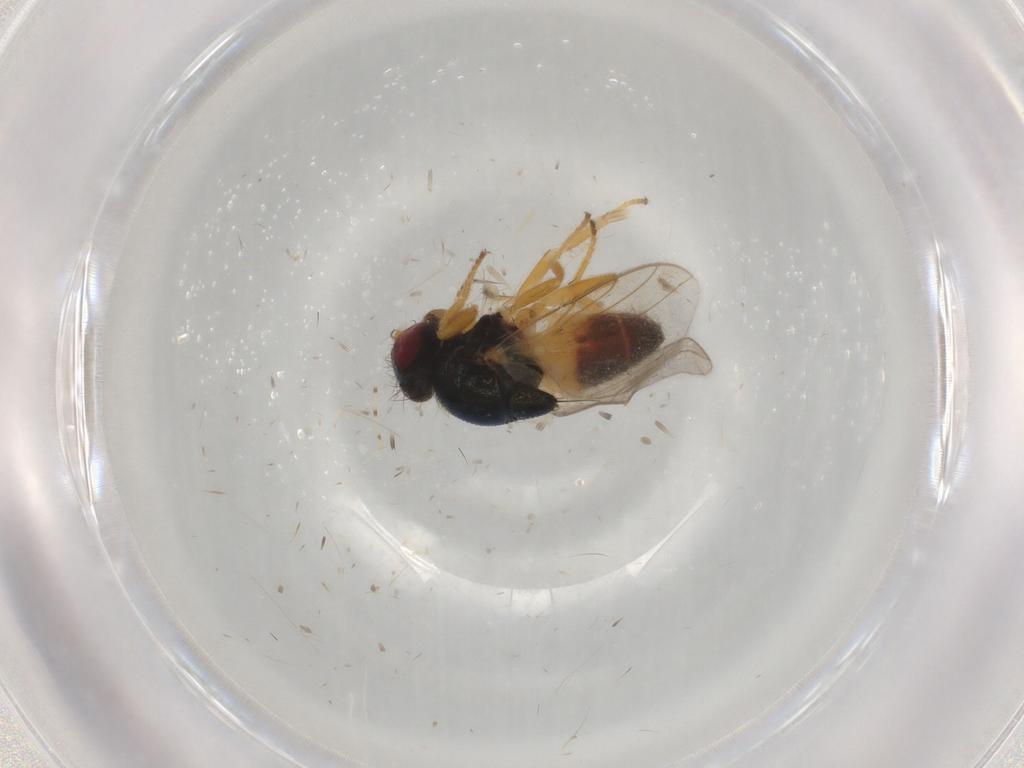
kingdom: Animalia
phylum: Arthropoda
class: Insecta
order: Diptera
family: Chloropidae
